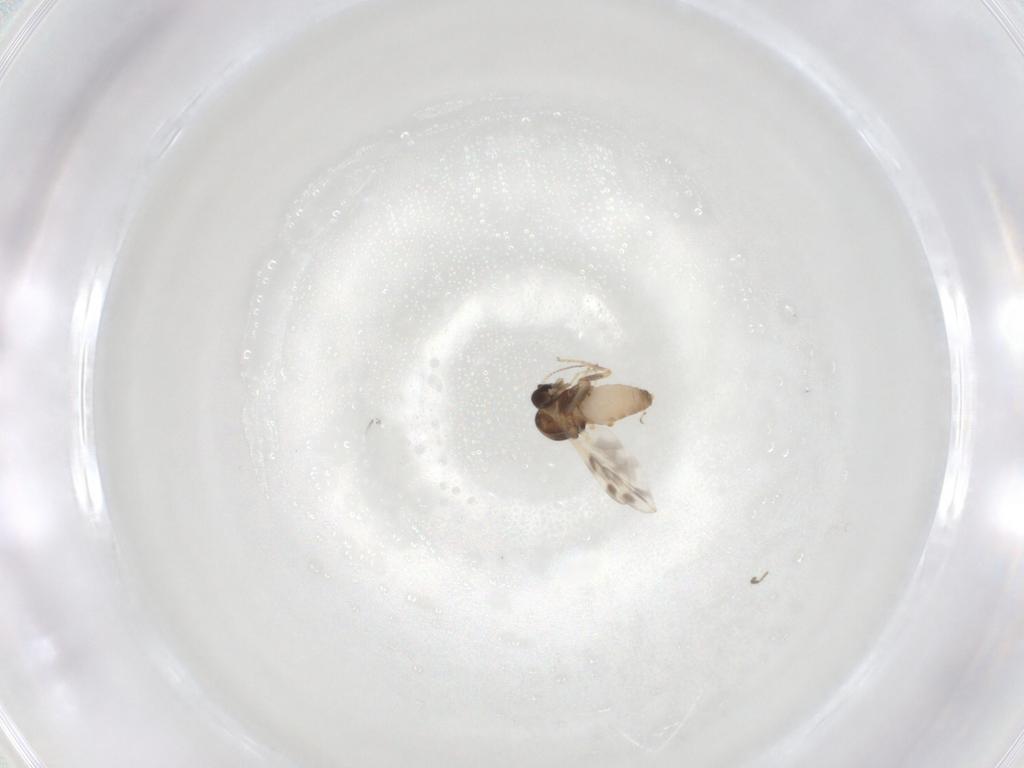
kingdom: Animalia
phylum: Arthropoda
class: Insecta
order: Diptera
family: Ceratopogonidae
